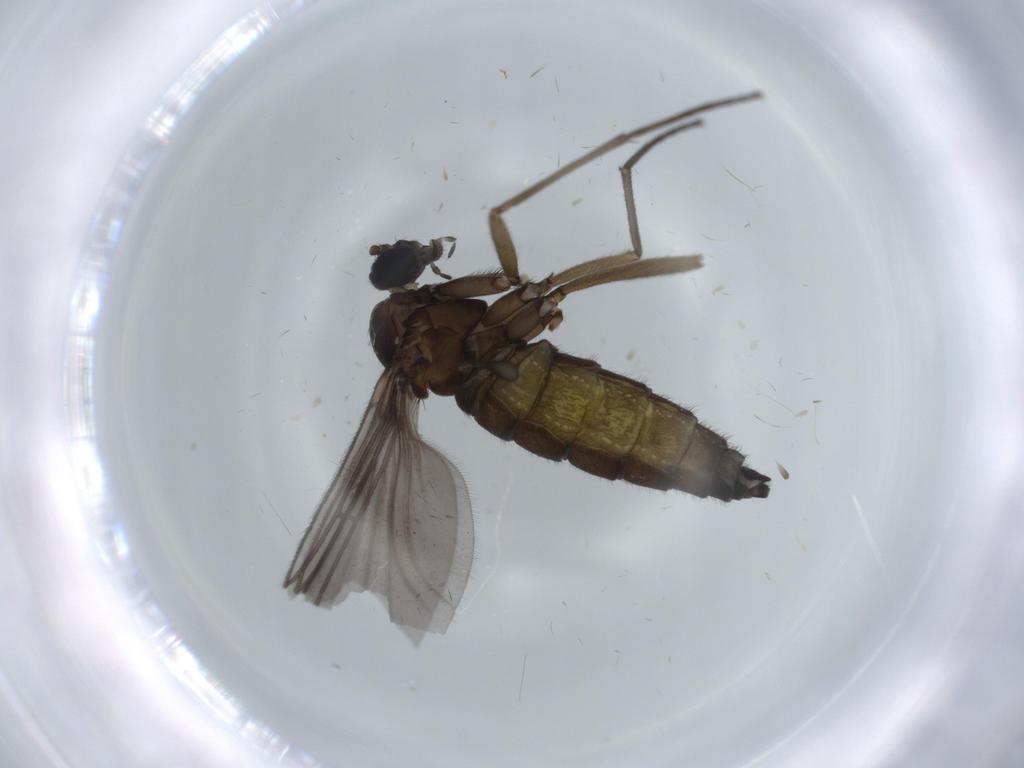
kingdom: Animalia
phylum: Arthropoda
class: Insecta
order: Diptera
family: Sciaridae
